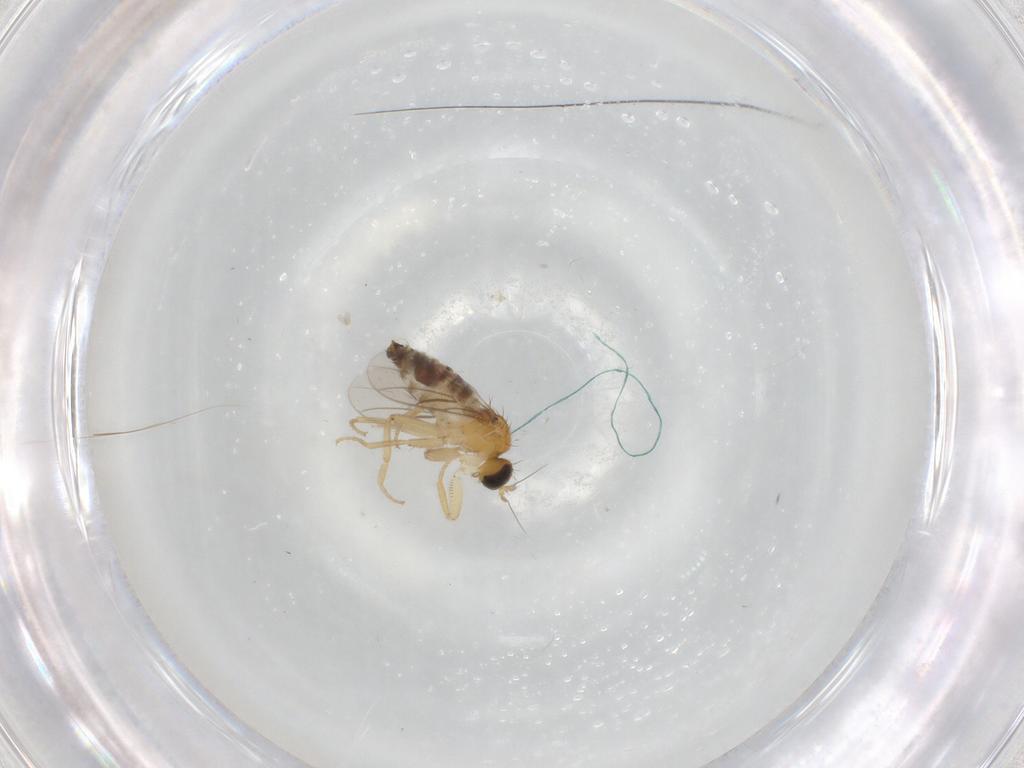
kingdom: Animalia
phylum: Arthropoda
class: Insecta
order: Diptera
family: Hybotidae
